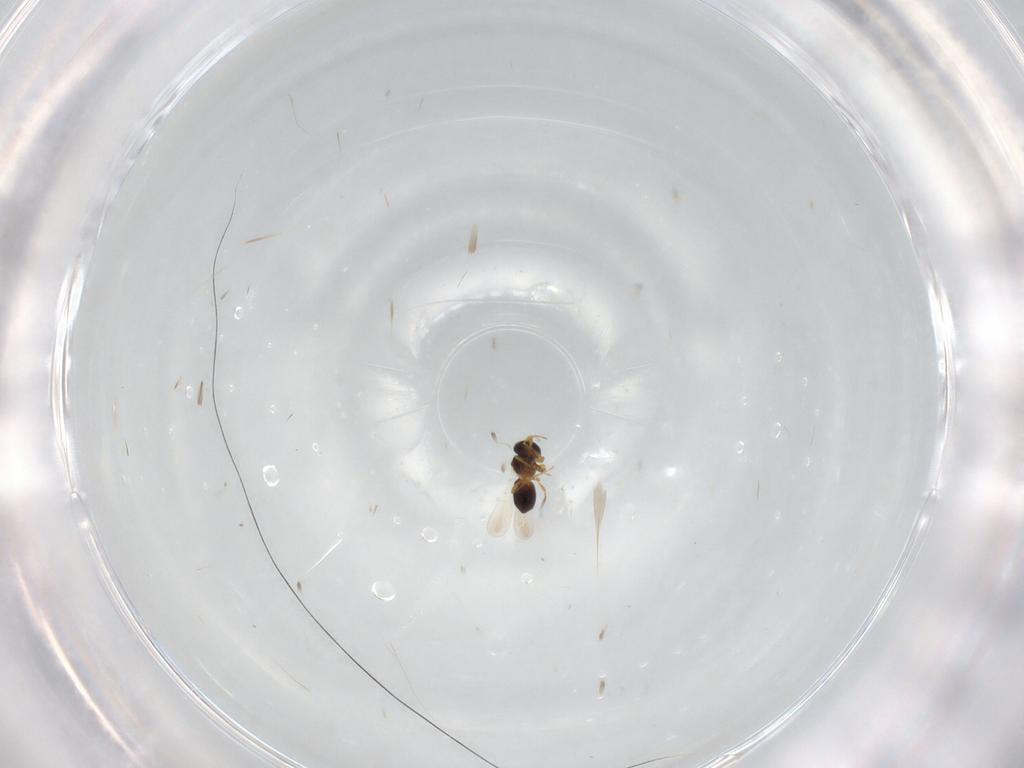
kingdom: Animalia
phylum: Arthropoda
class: Insecta
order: Hymenoptera
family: Scelionidae
